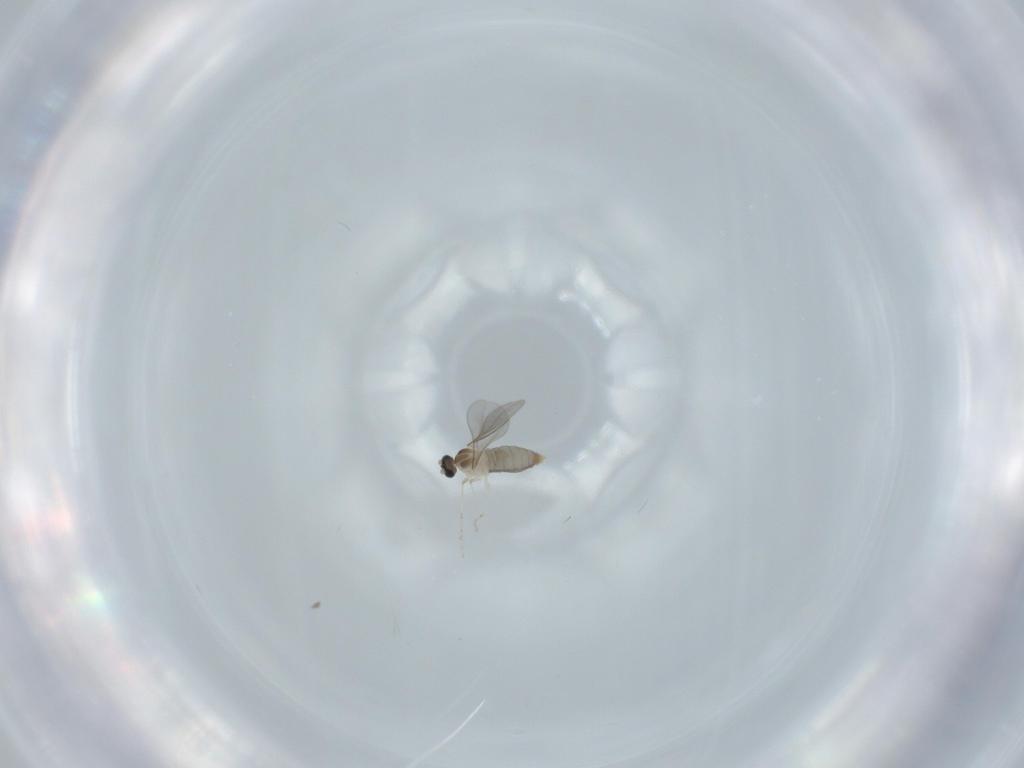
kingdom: Animalia
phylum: Arthropoda
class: Insecta
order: Diptera
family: Cecidomyiidae
